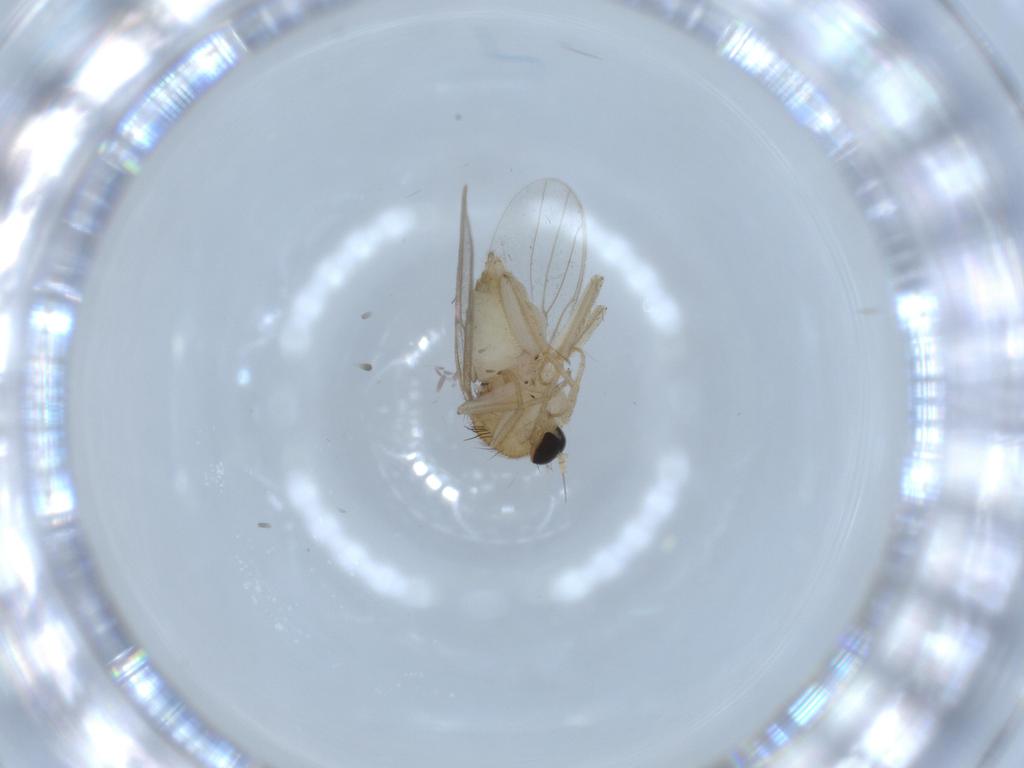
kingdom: Animalia
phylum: Arthropoda
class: Insecta
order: Diptera
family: Hybotidae
